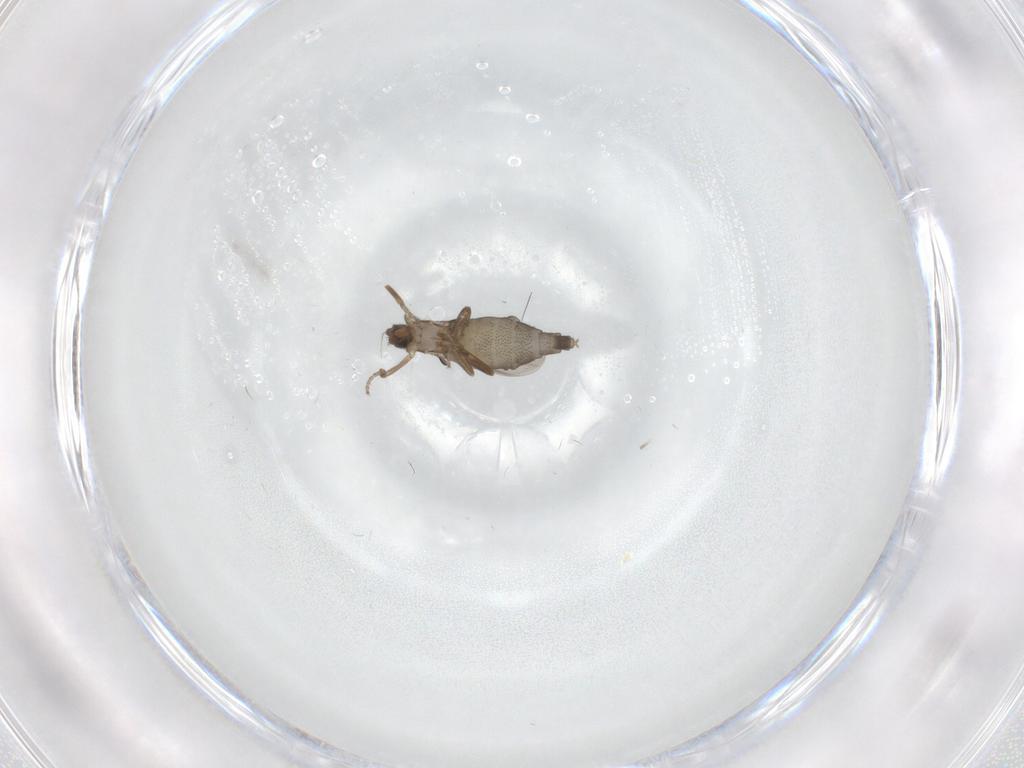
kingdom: Animalia
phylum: Arthropoda
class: Insecta
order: Diptera
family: Phoridae
